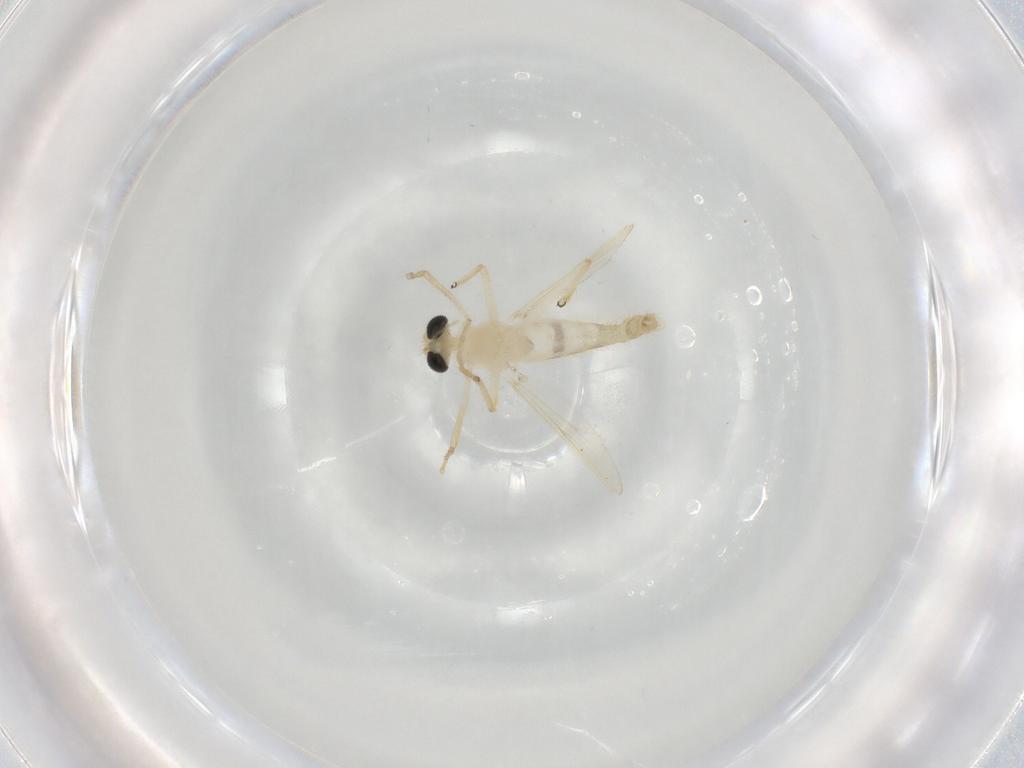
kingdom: Animalia
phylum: Arthropoda
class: Insecta
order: Diptera
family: Chironomidae
